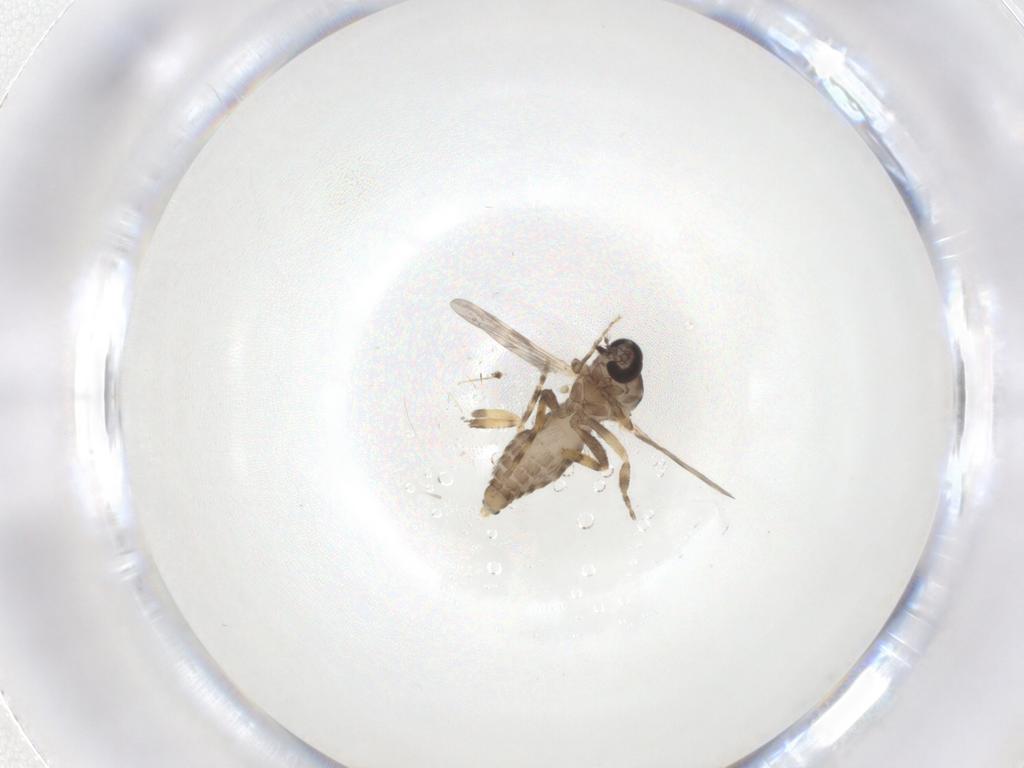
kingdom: Animalia
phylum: Arthropoda
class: Insecta
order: Diptera
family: Ceratopogonidae
